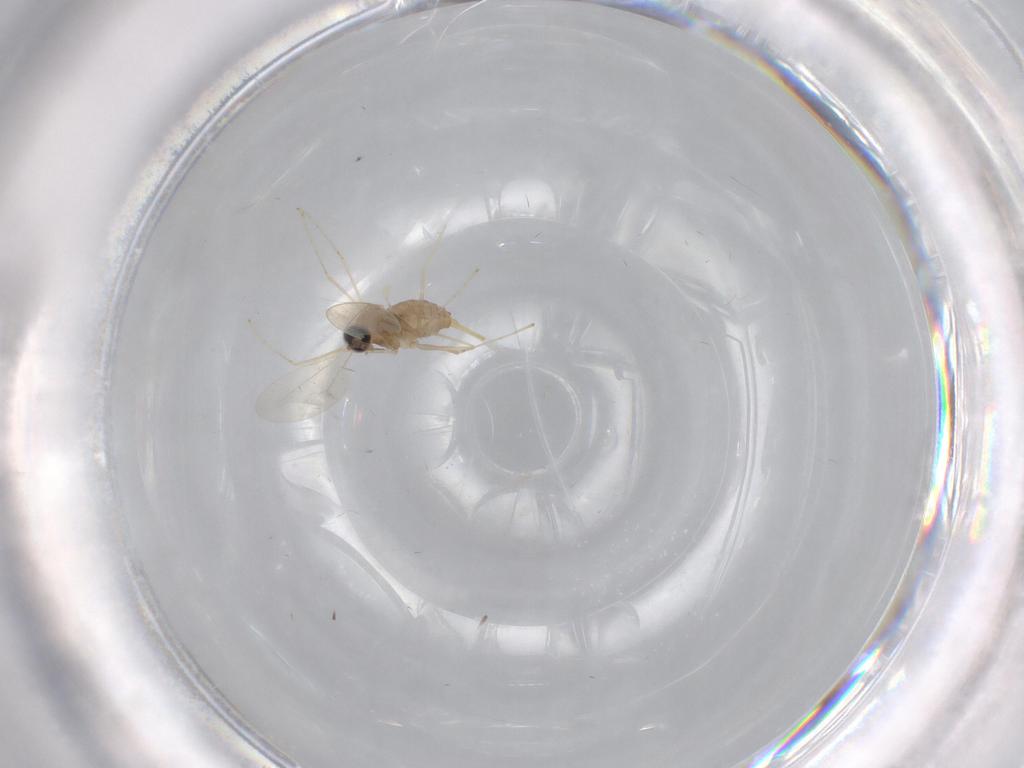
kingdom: Animalia
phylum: Arthropoda
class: Insecta
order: Diptera
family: Cecidomyiidae
